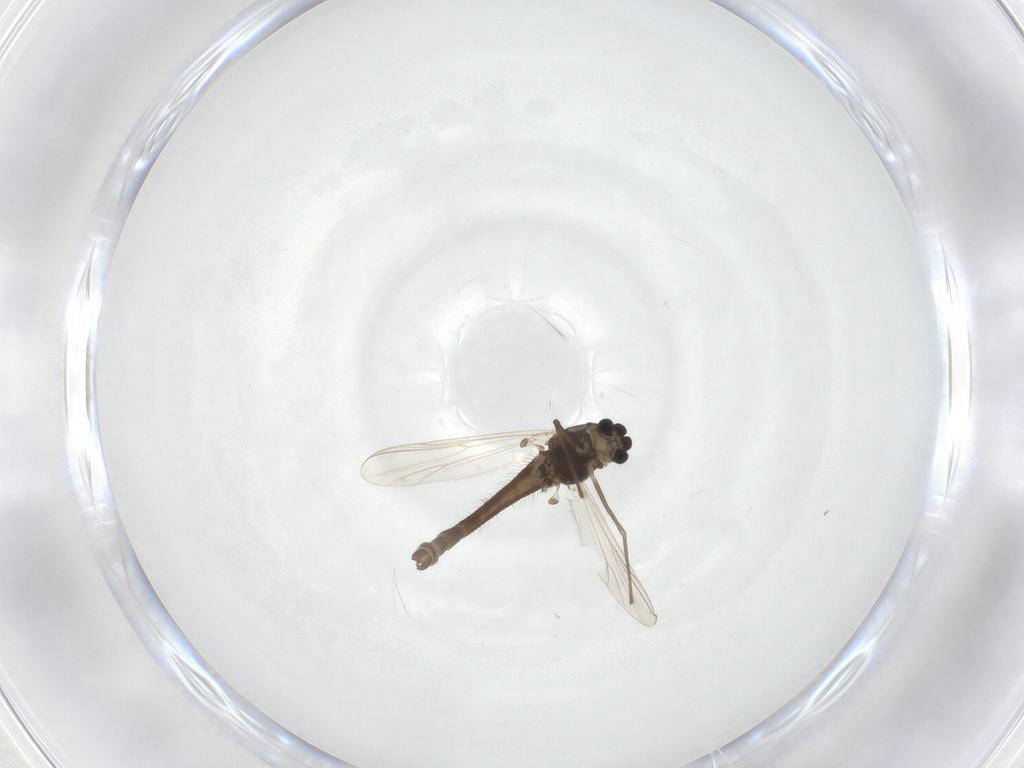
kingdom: Animalia
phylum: Arthropoda
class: Insecta
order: Diptera
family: Chironomidae
